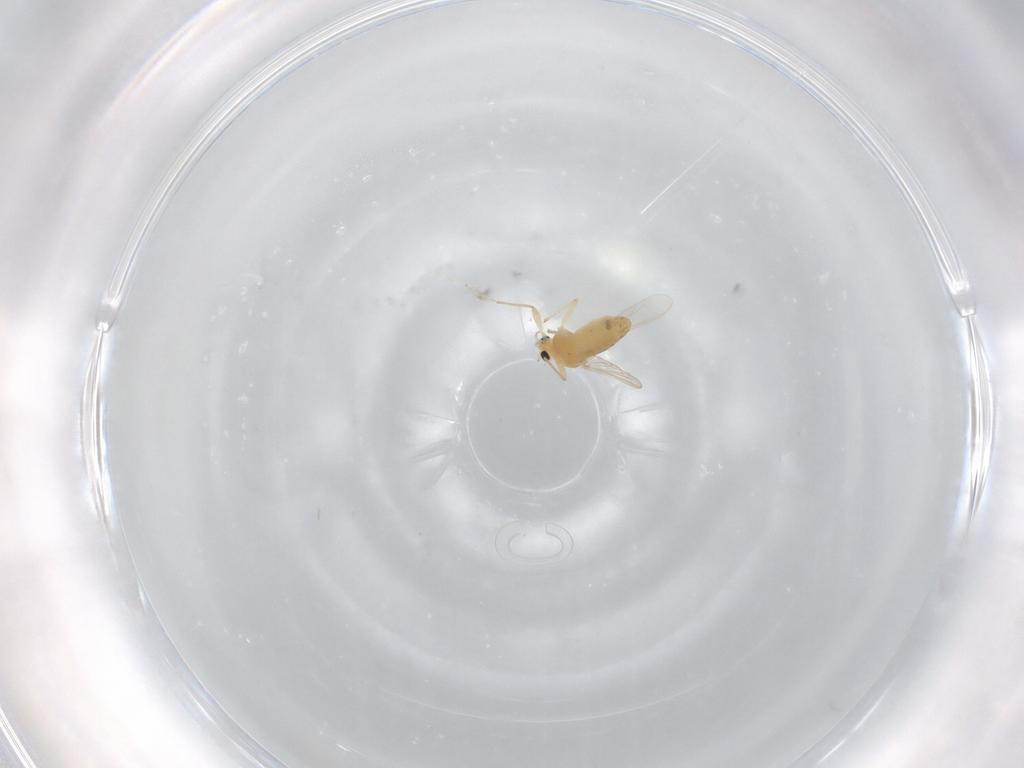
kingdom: Animalia
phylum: Arthropoda
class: Insecta
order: Diptera
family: Chironomidae
